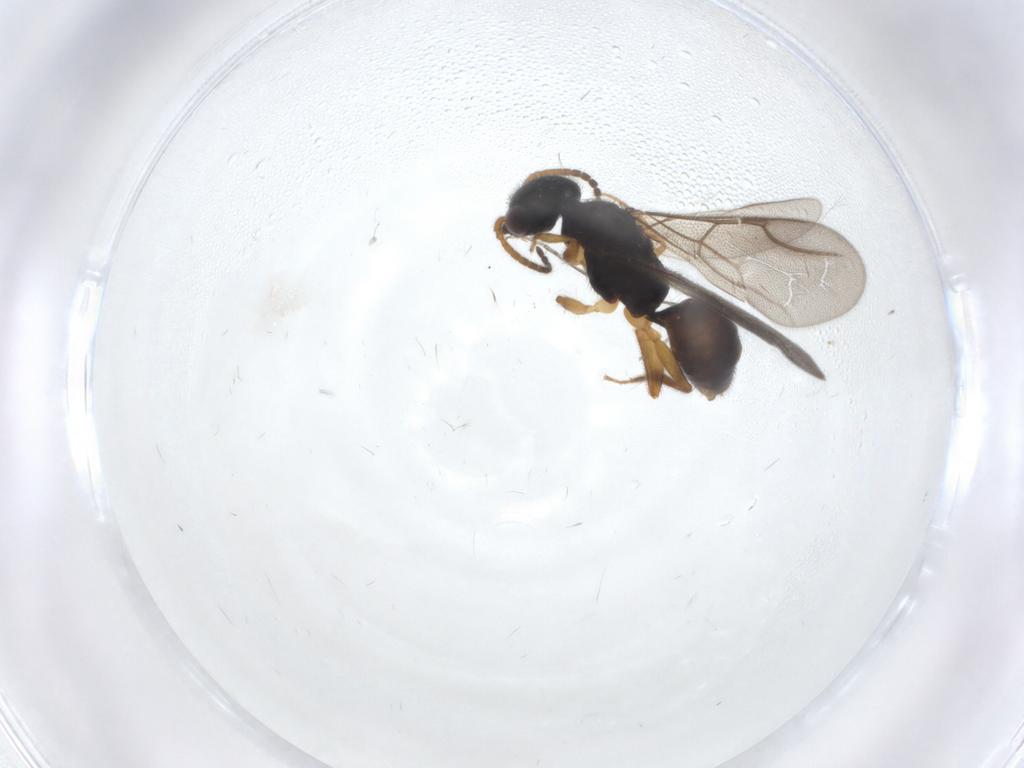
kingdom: Animalia
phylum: Arthropoda
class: Insecta
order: Hymenoptera
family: Bethylidae
